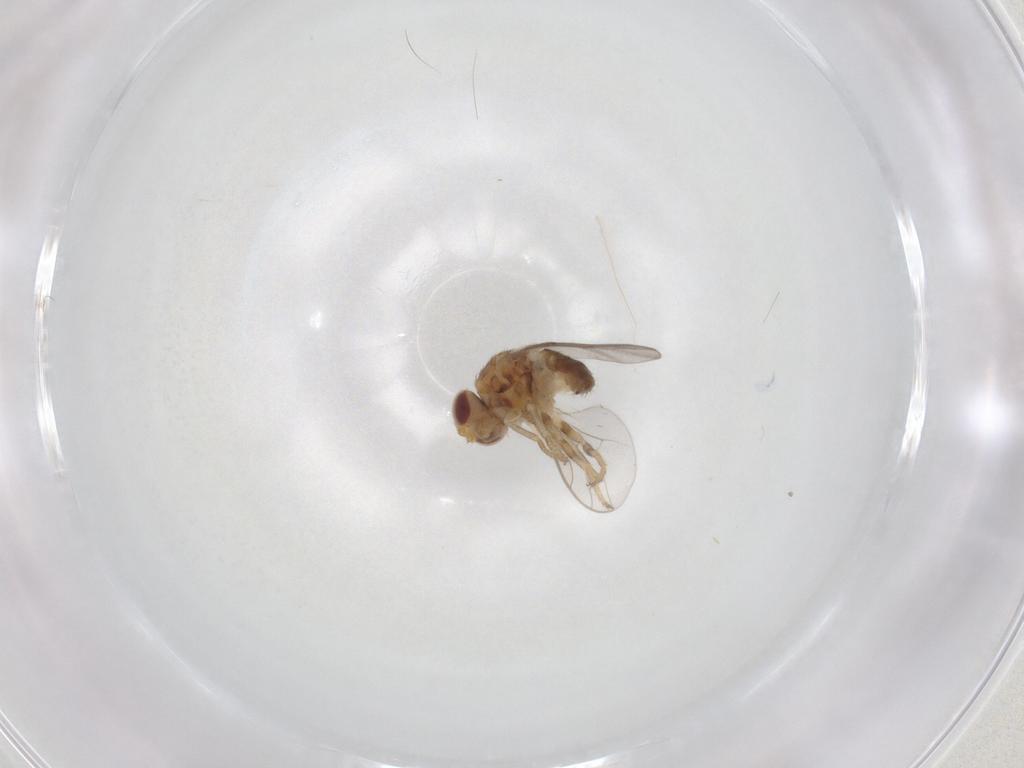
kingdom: Animalia
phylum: Arthropoda
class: Insecta
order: Diptera
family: Chloropidae
